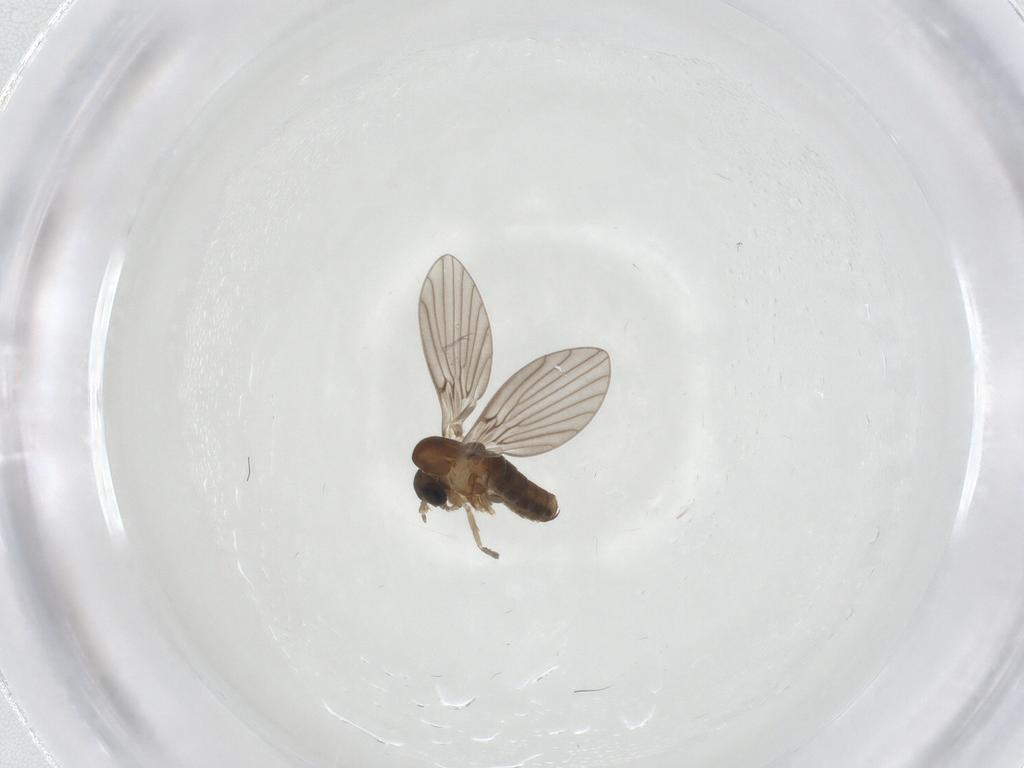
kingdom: Animalia
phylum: Arthropoda
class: Insecta
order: Diptera
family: Psychodidae
